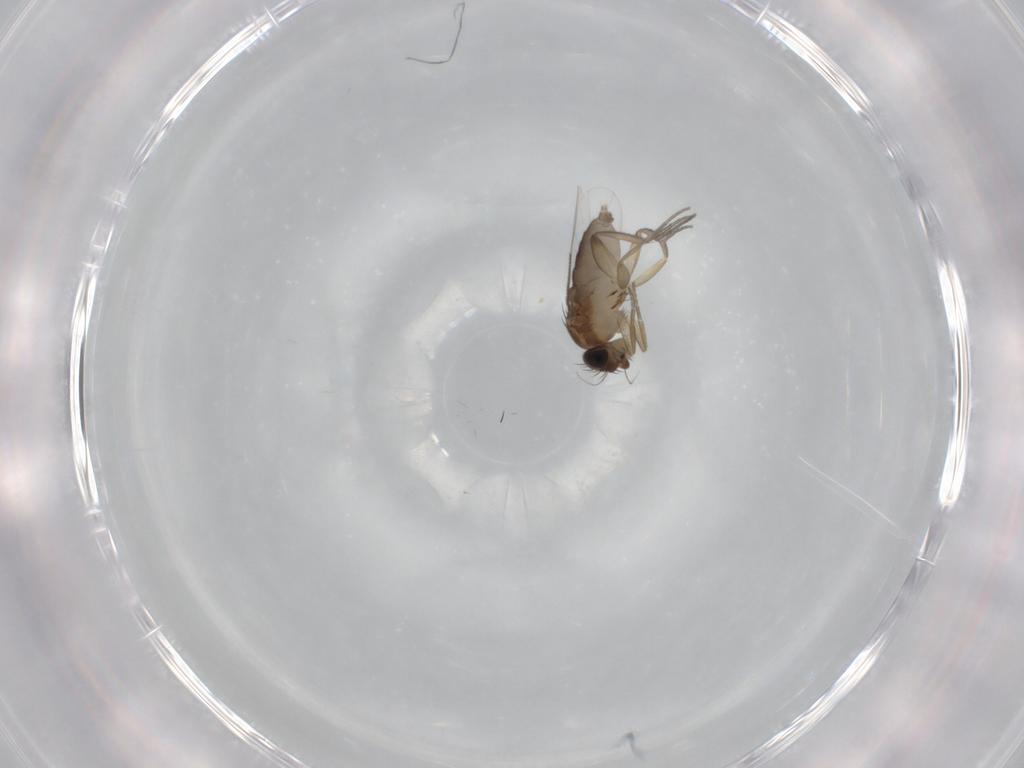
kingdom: Animalia
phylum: Arthropoda
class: Insecta
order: Diptera
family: Phoridae
